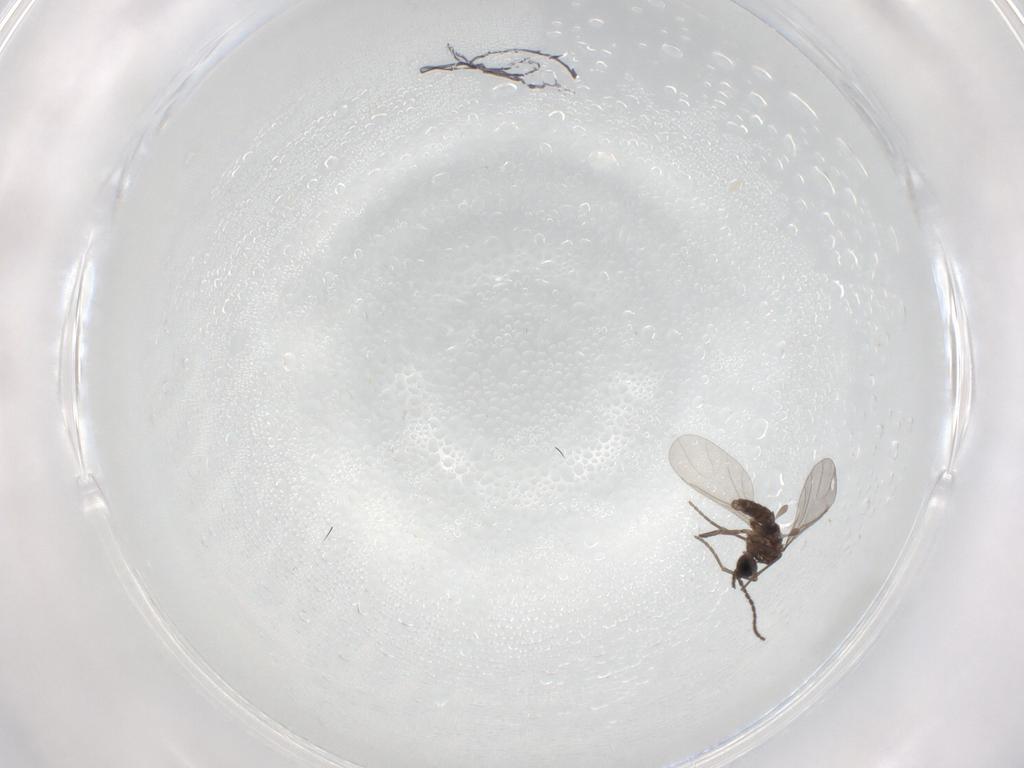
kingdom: Animalia
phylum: Arthropoda
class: Insecta
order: Diptera
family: Sciaridae
